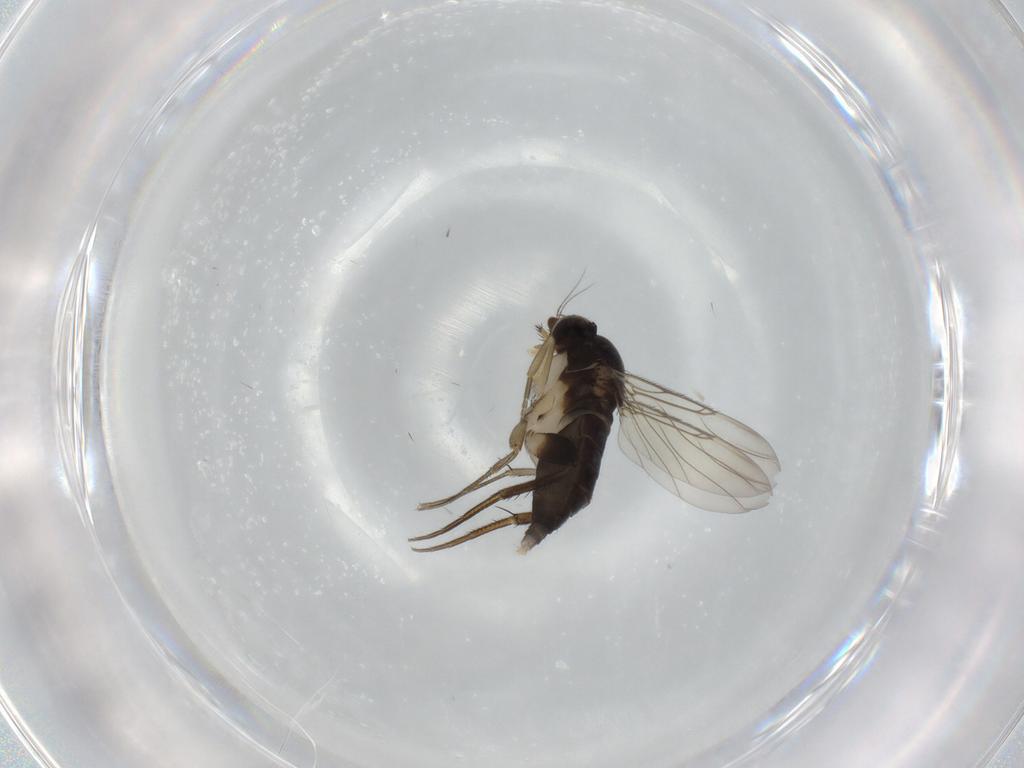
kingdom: Animalia
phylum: Arthropoda
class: Insecta
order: Diptera
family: Phoridae
